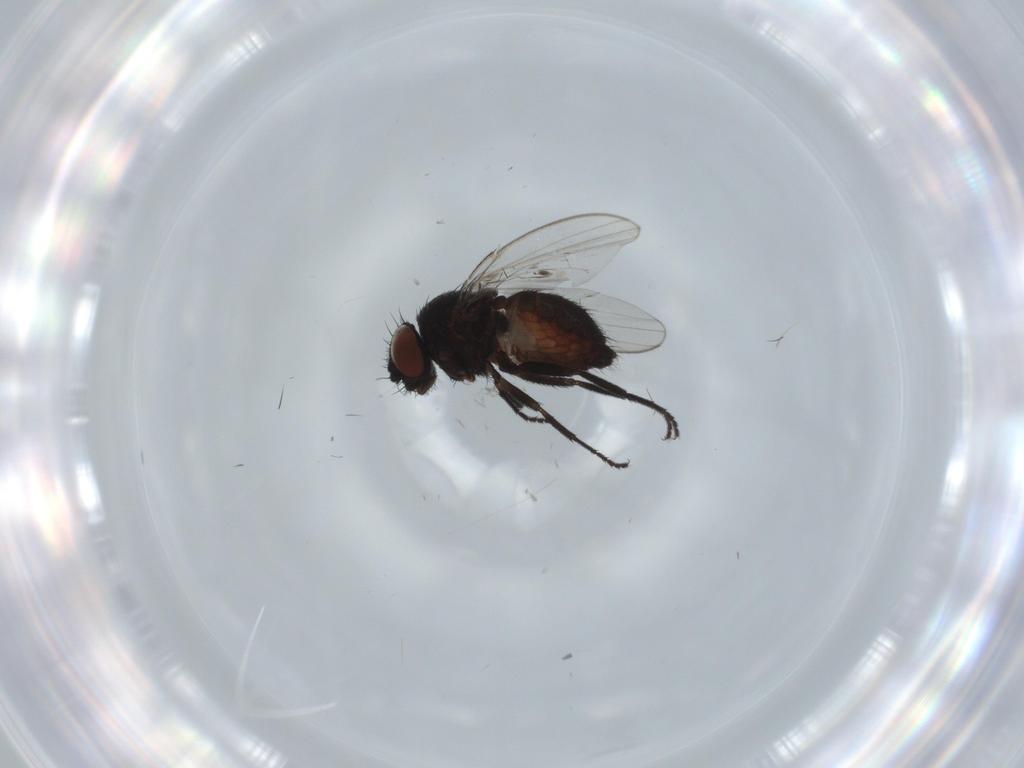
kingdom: Animalia
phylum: Arthropoda
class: Insecta
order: Diptera
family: Milichiidae
